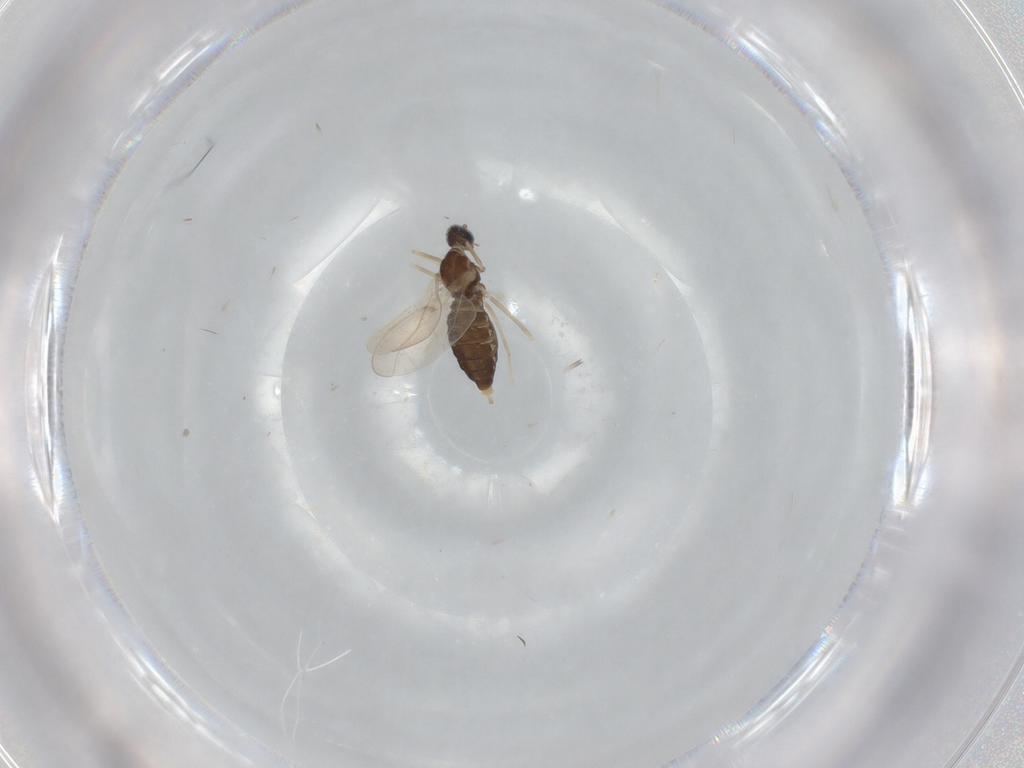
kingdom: Animalia
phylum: Arthropoda
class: Insecta
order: Diptera
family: Cecidomyiidae
